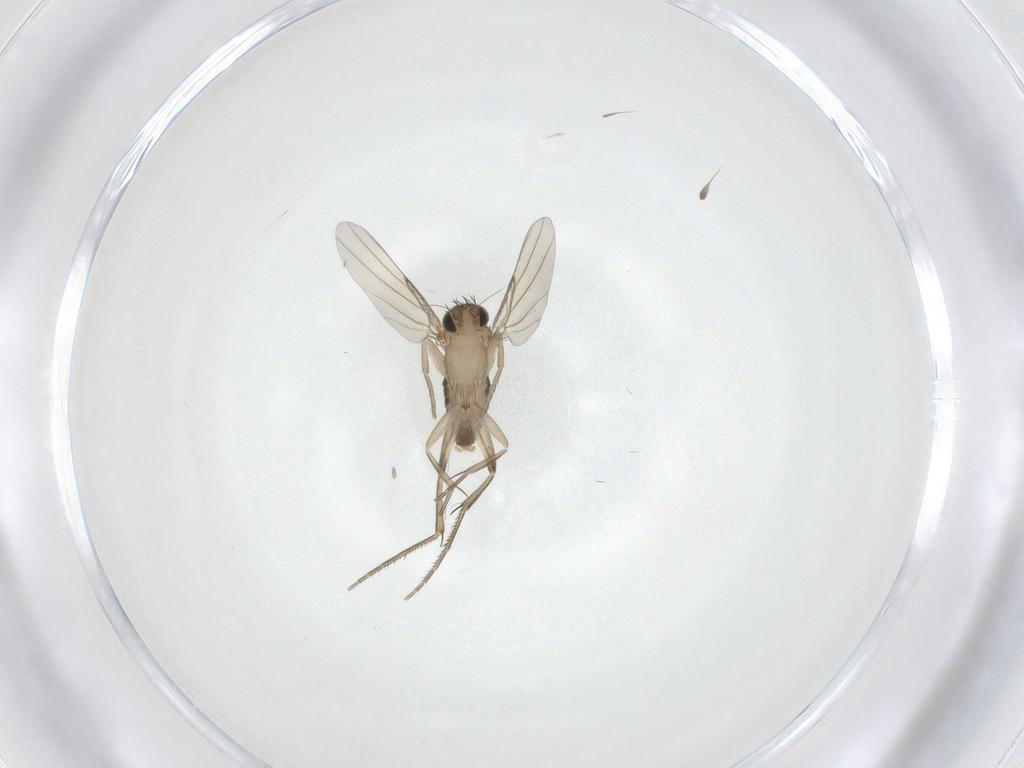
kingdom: Animalia
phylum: Arthropoda
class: Insecta
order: Diptera
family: Phoridae
